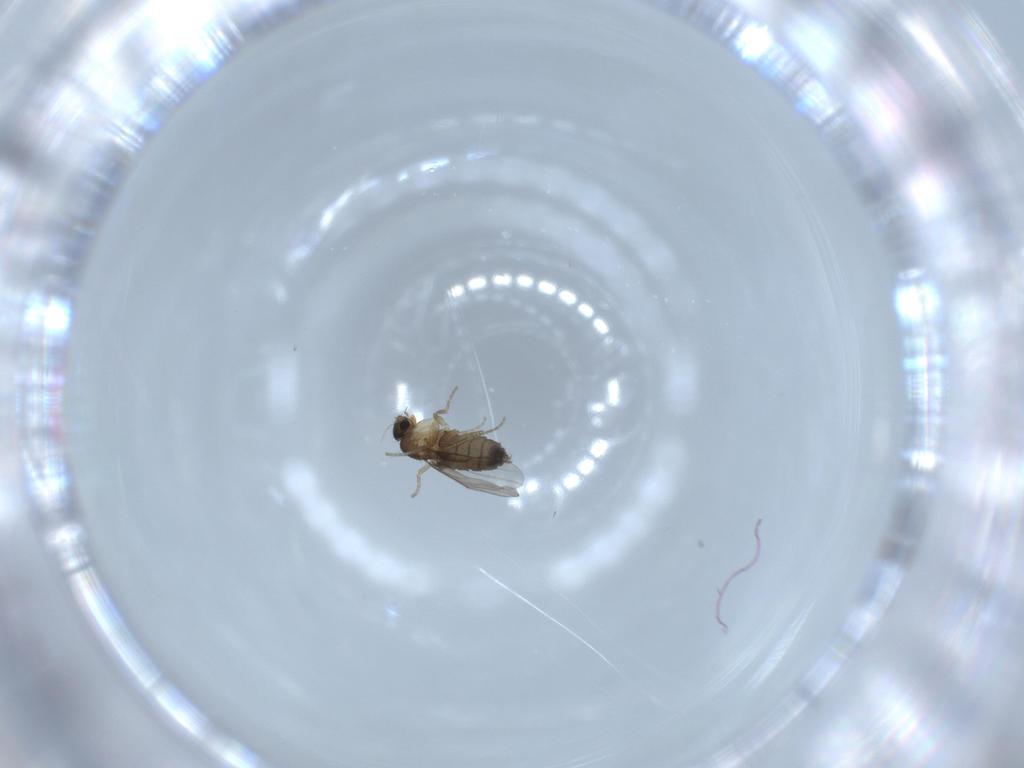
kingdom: Animalia
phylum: Arthropoda
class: Insecta
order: Diptera
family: Phoridae
